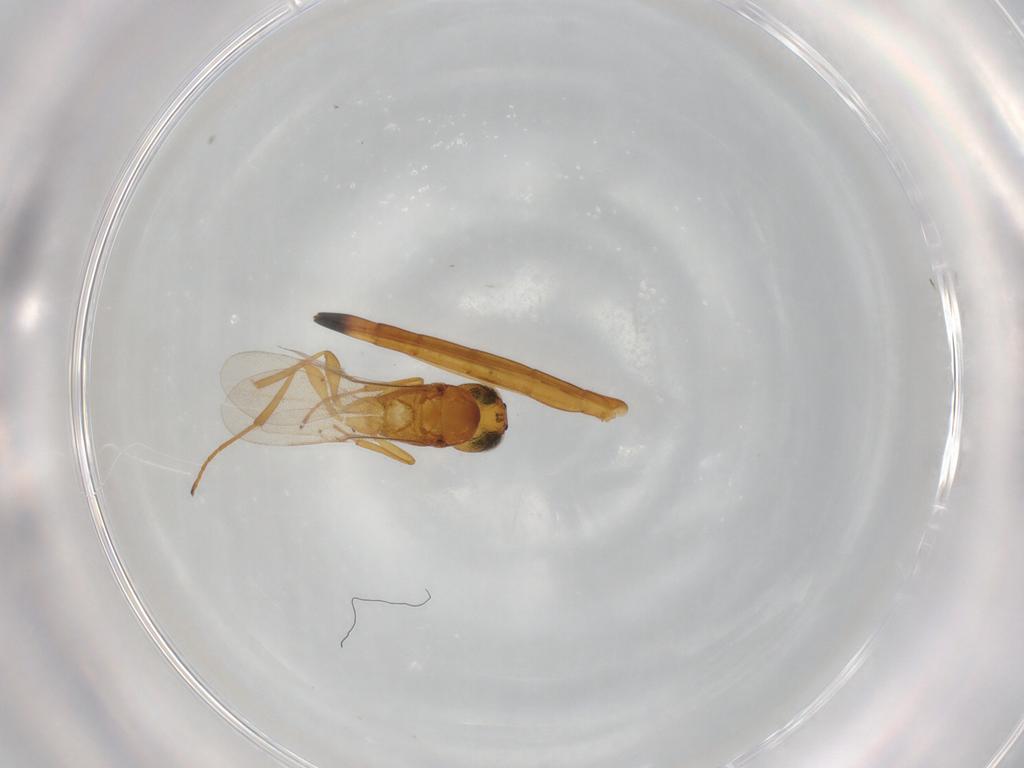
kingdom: Animalia
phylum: Arthropoda
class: Insecta
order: Hymenoptera
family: Scelionidae
